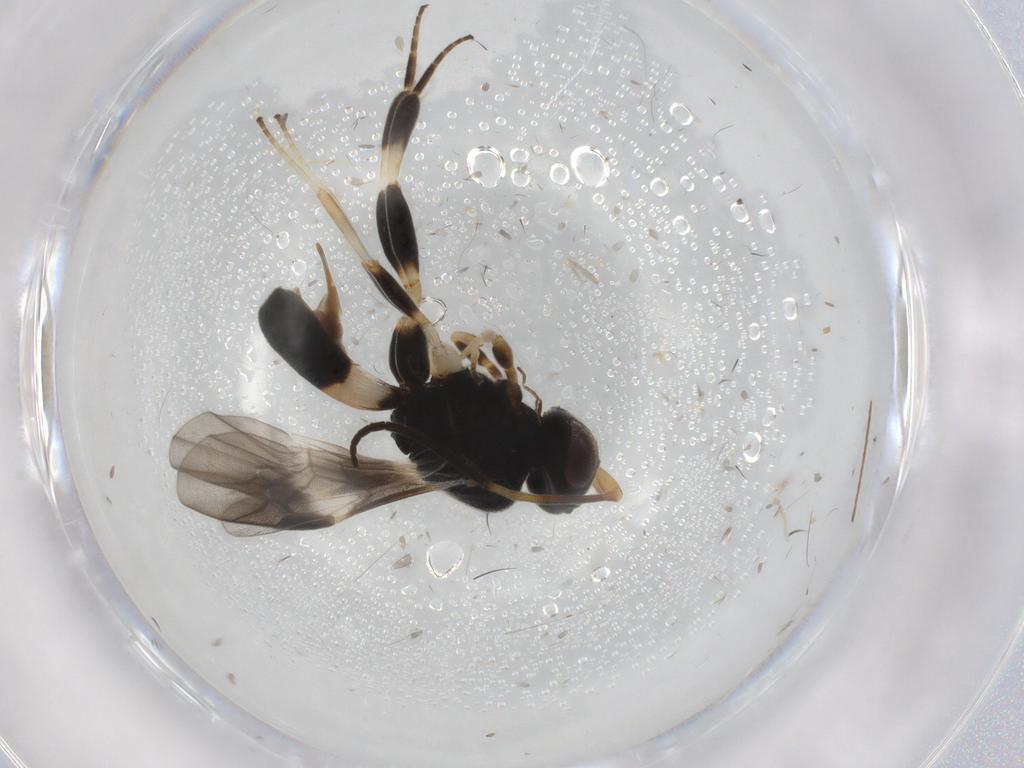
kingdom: Animalia
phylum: Arthropoda
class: Insecta
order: Hymenoptera
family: Braconidae
